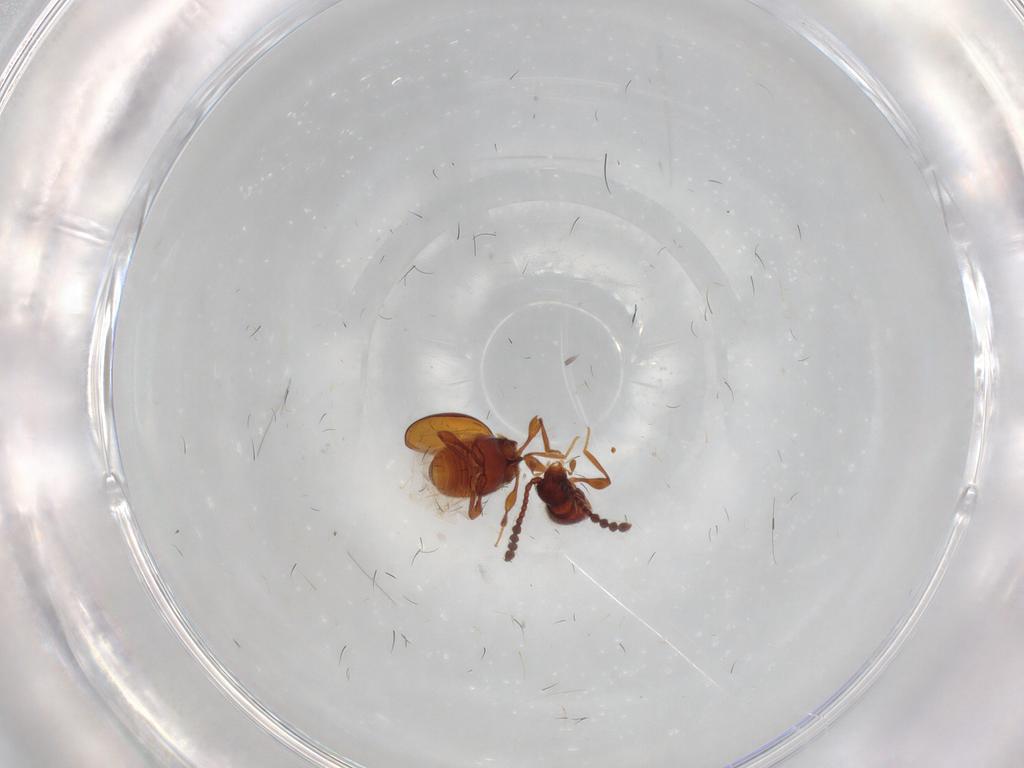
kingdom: Animalia
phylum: Arthropoda
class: Insecta
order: Coleoptera
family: Staphylinidae
